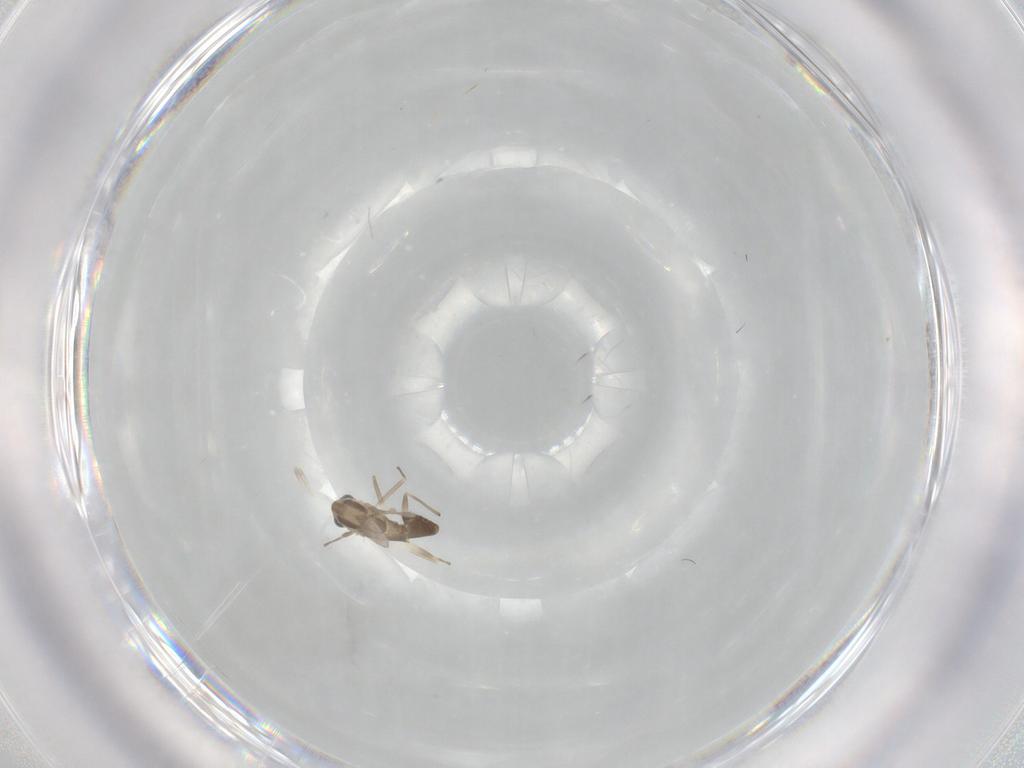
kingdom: Animalia
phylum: Arthropoda
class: Insecta
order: Diptera
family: Chironomidae
